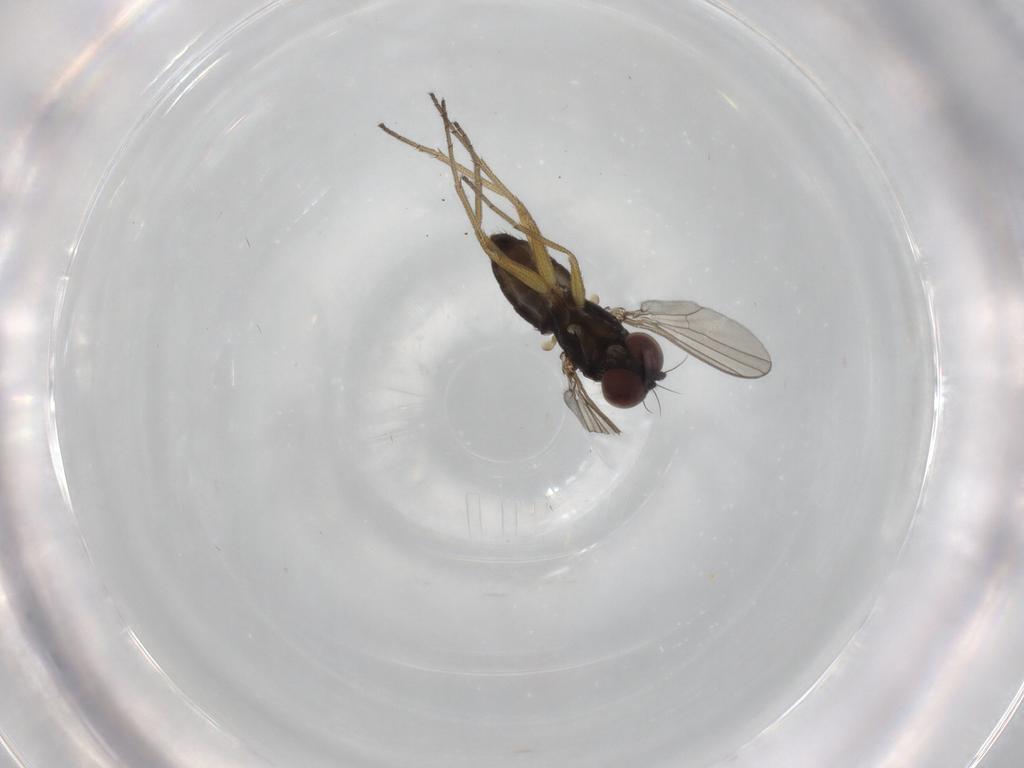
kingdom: Animalia
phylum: Arthropoda
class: Insecta
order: Diptera
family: Dolichopodidae
